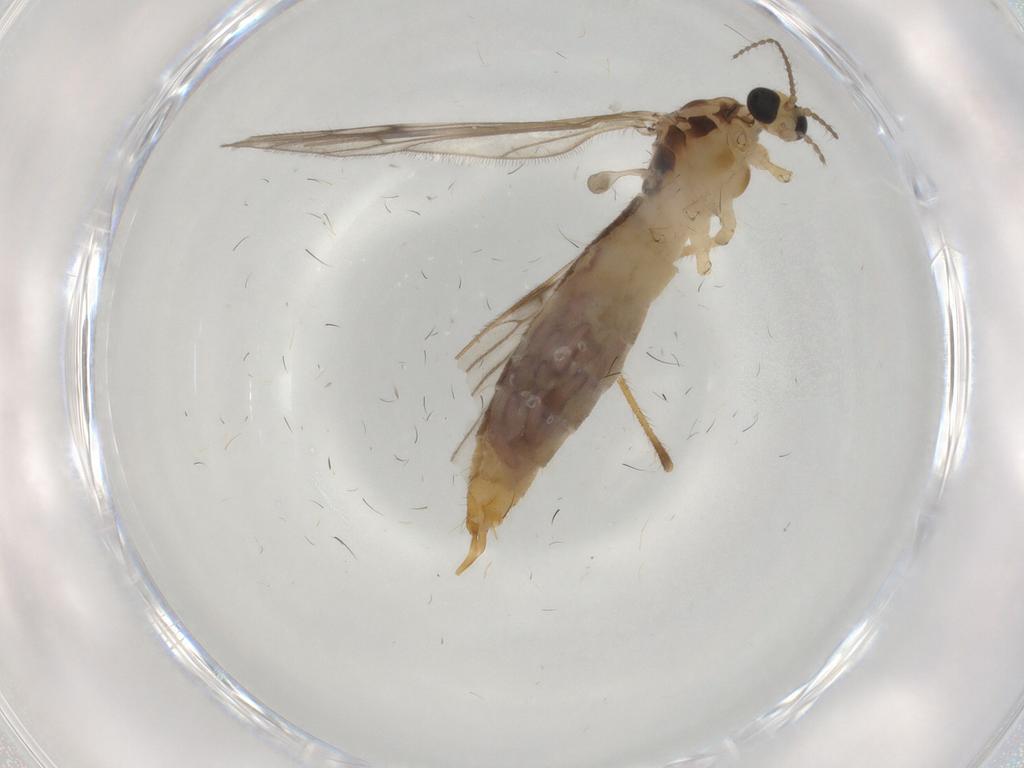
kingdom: Animalia
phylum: Arthropoda
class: Insecta
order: Diptera
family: Limoniidae
